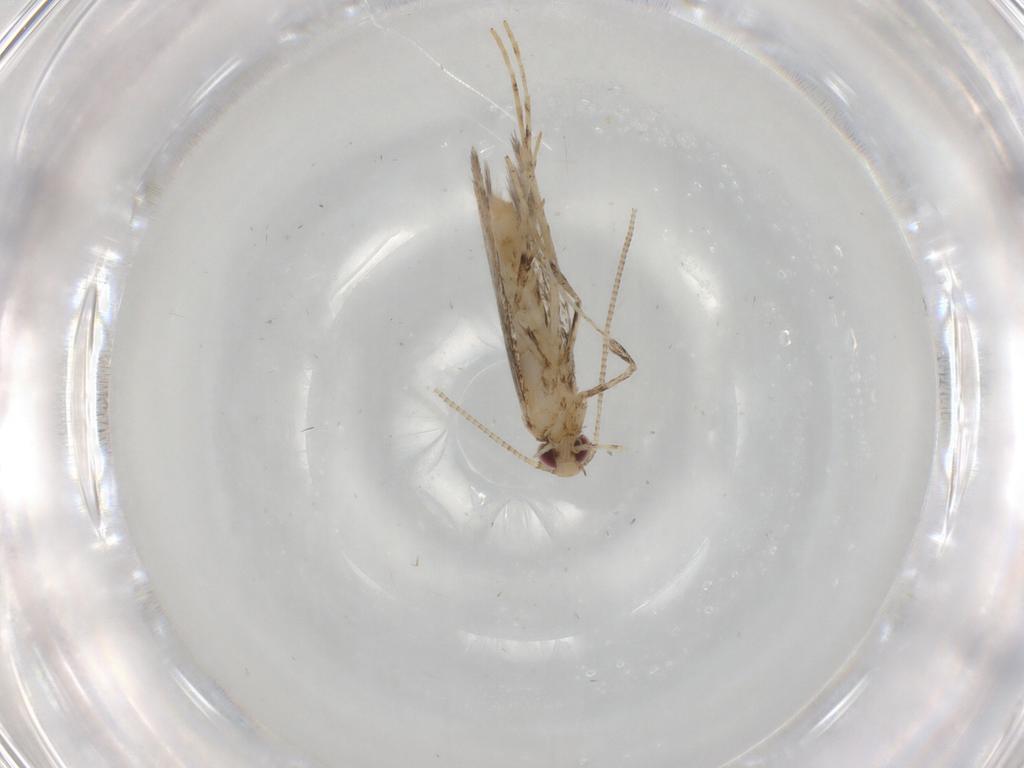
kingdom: Animalia
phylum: Arthropoda
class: Insecta
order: Lepidoptera
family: Gracillariidae
